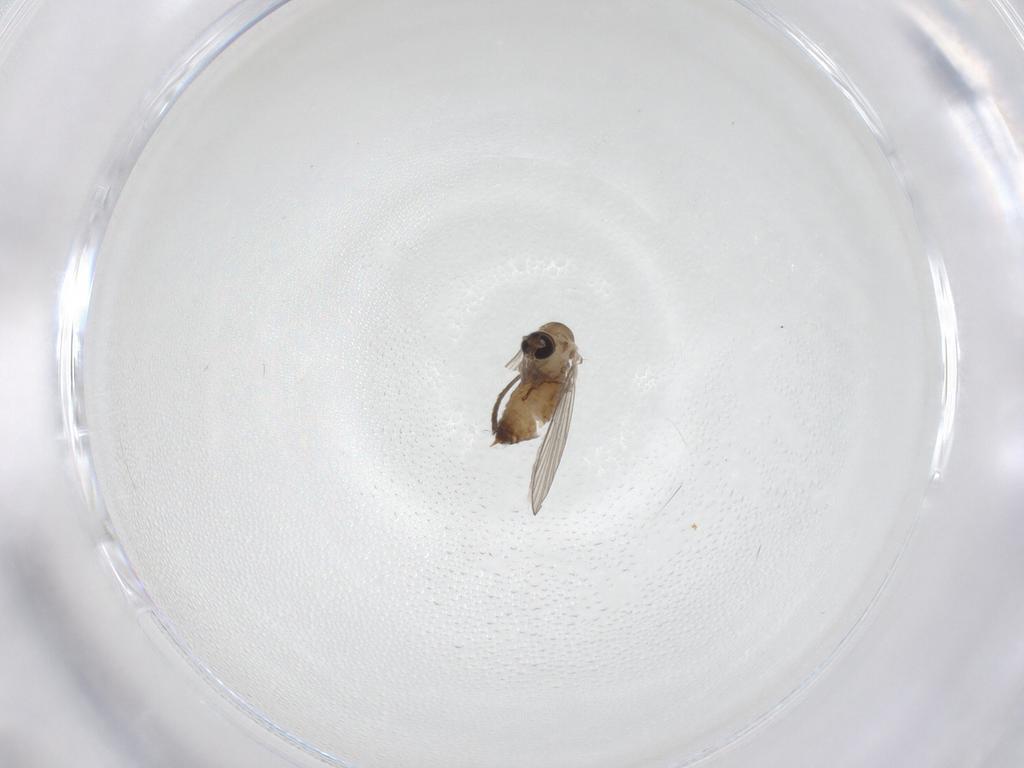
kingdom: Animalia
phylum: Arthropoda
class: Insecta
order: Diptera
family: Psychodidae
